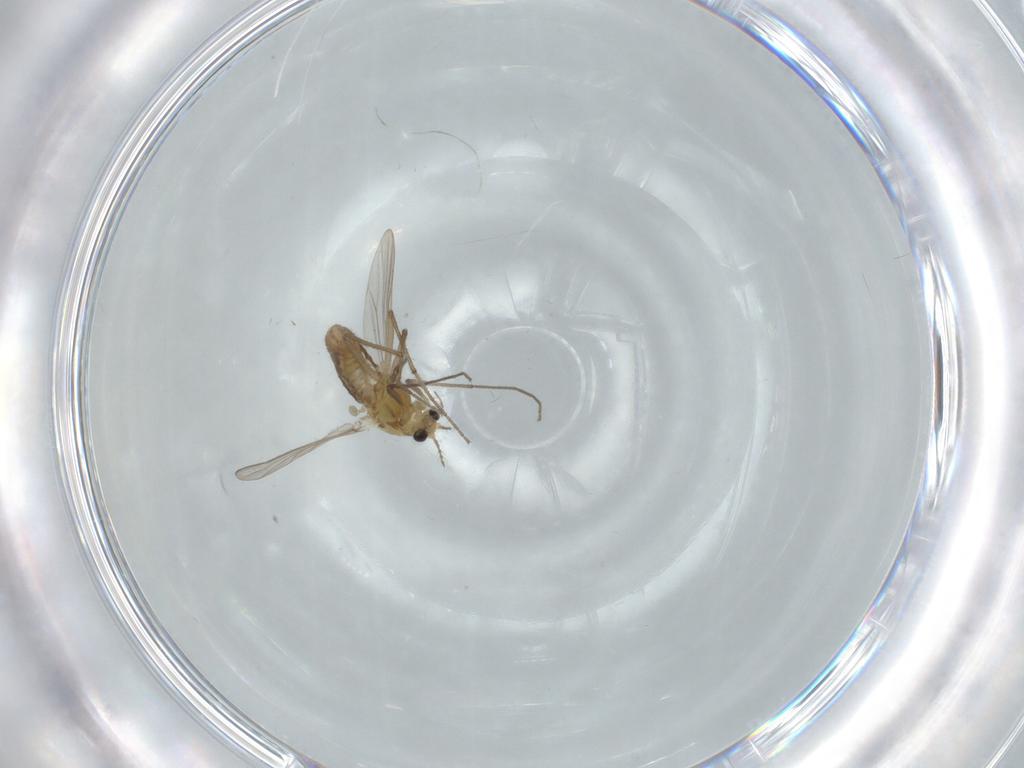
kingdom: Animalia
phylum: Arthropoda
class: Insecta
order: Diptera
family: Chironomidae
